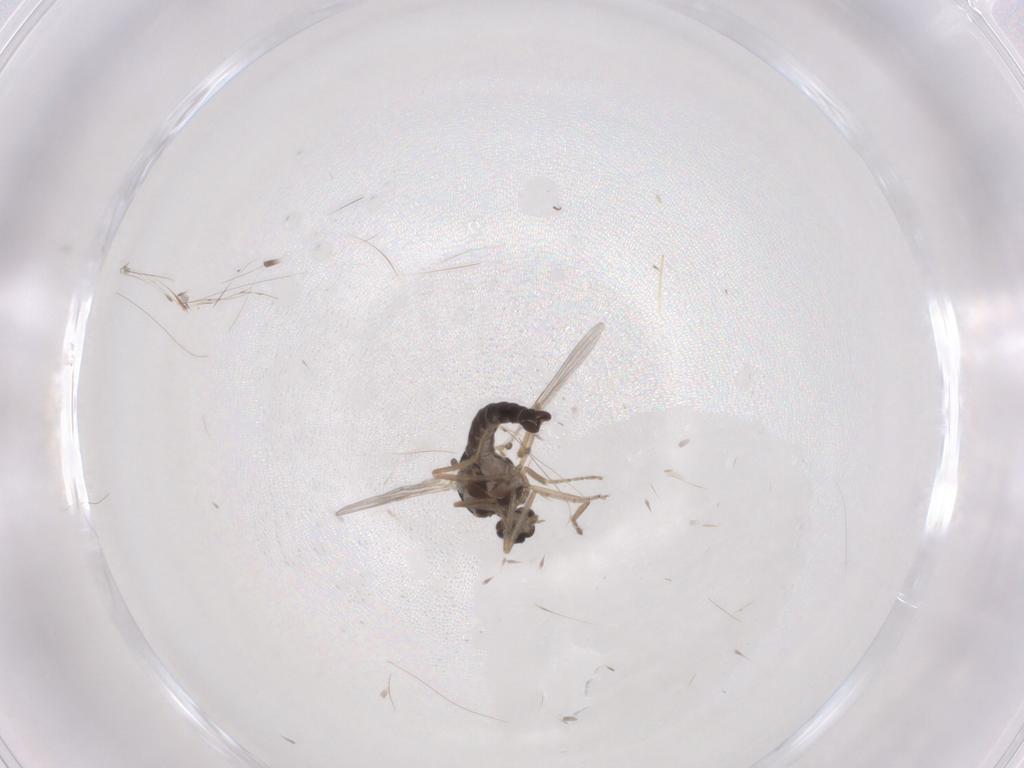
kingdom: Animalia
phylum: Arthropoda
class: Insecta
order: Diptera
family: Ceratopogonidae
